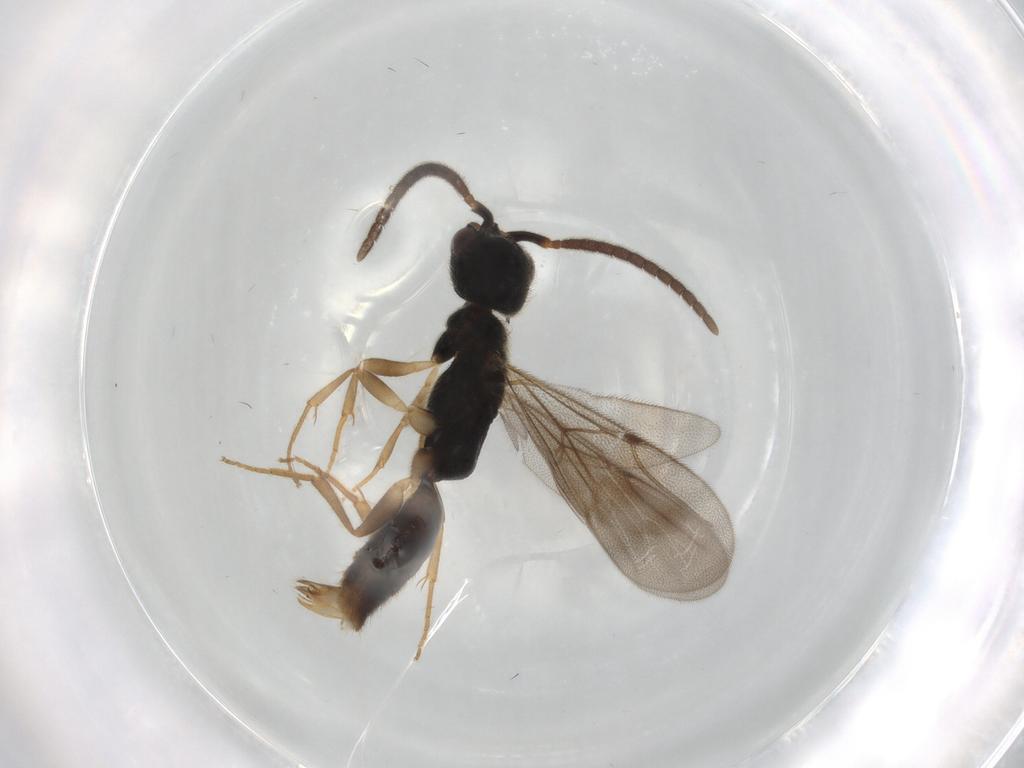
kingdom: Animalia
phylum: Arthropoda
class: Insecta
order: Hymenoptera
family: Bethylidae
